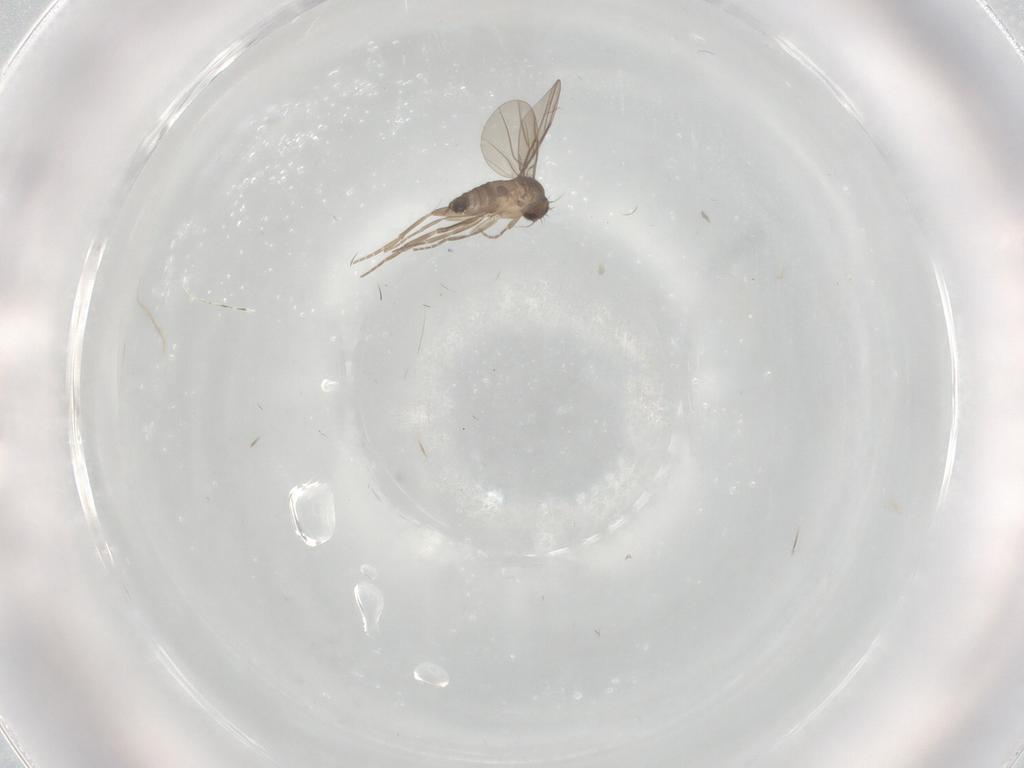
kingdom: Animalia
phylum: Arthropoda
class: Insecta
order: Diptera
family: Phoridae
